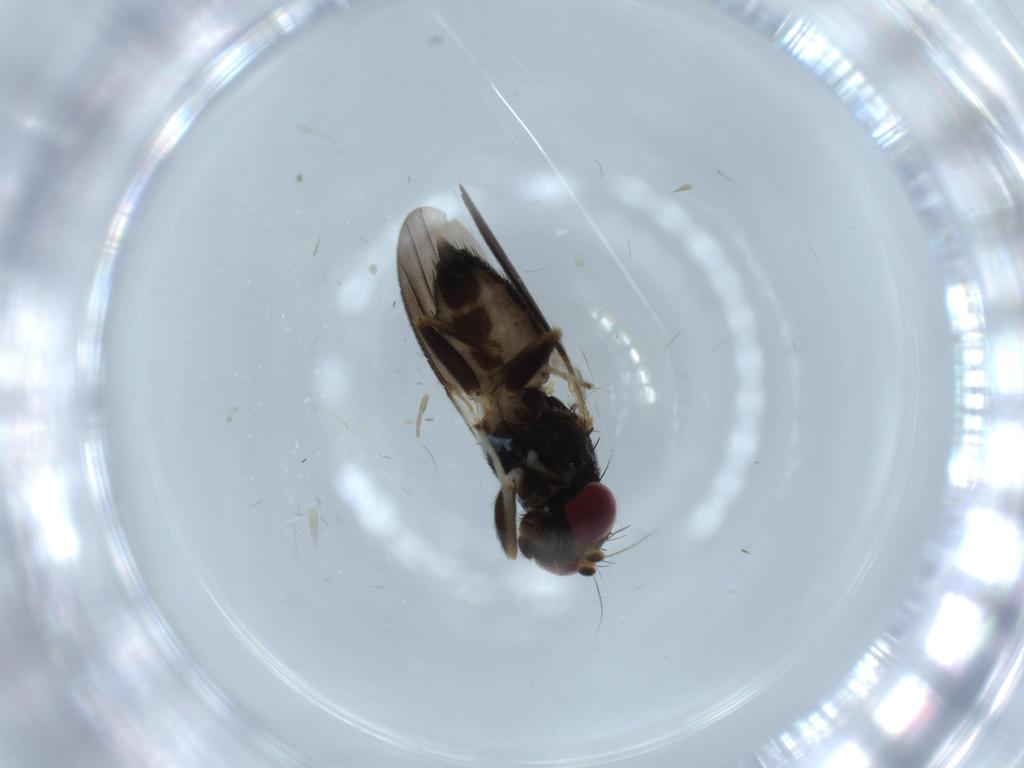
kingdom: Animalia
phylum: Arthropoda
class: Insecta
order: Diptera
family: Clusiidae
